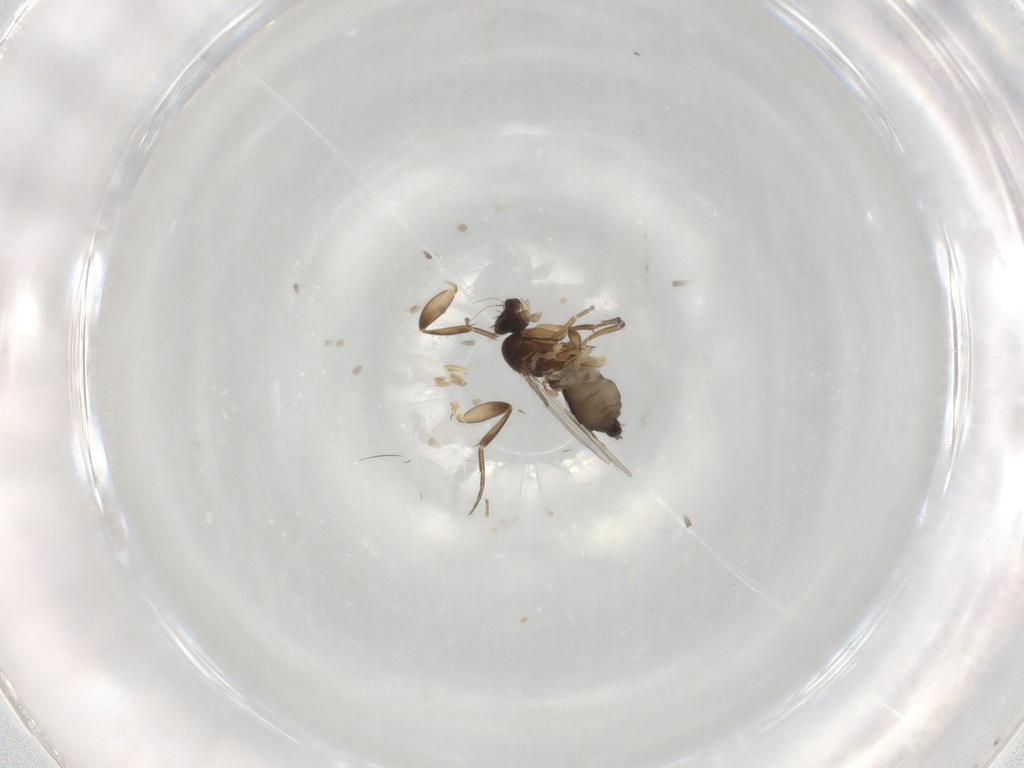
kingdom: Animalia
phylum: Arthropoda
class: Insecta
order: Diptera
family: Phoridae
